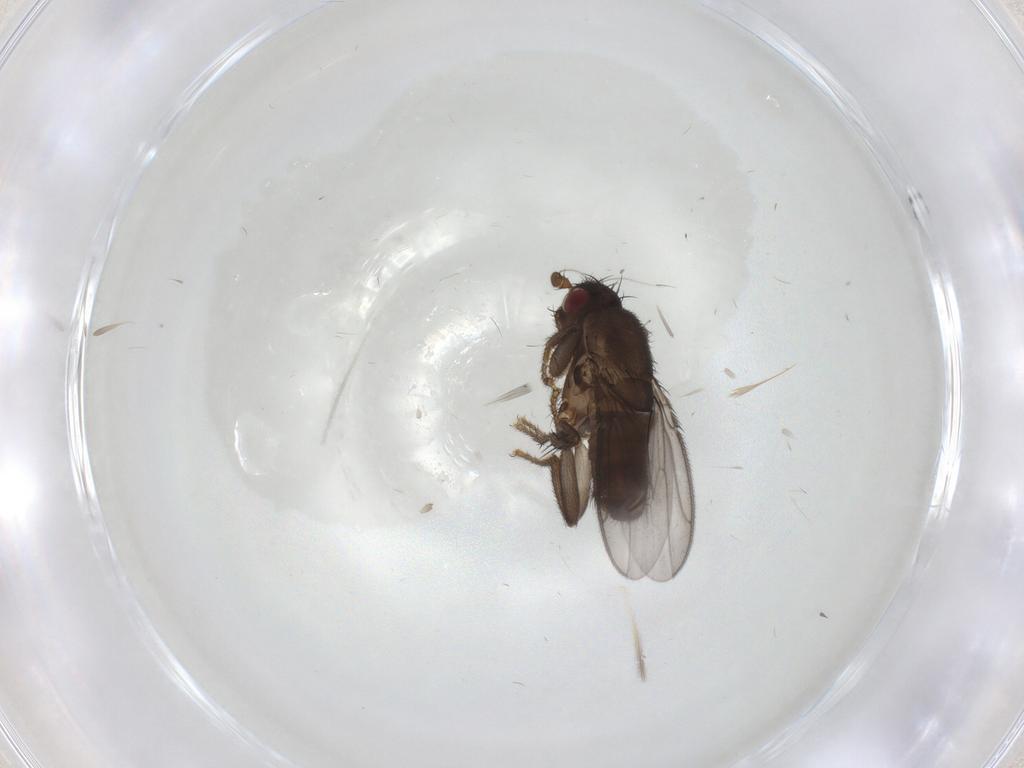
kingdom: Animalia
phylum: Arthropoda
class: Insecta
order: Diptera
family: Sphaeroceridae
